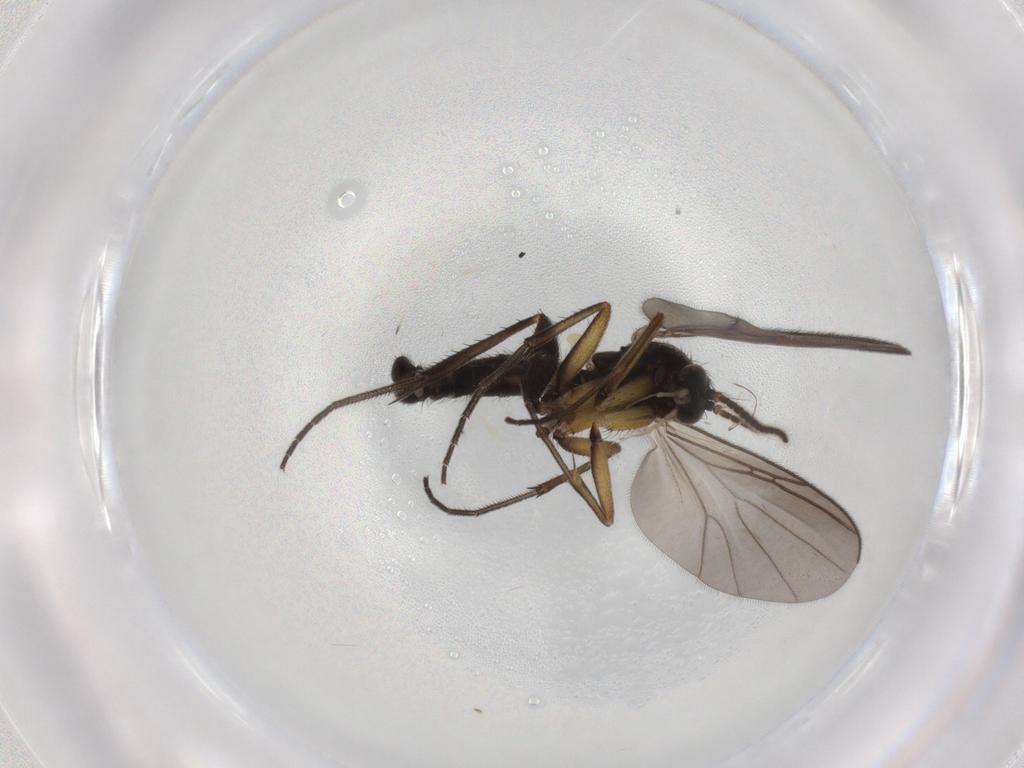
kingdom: Animalia
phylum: Arthropoda
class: Insecta
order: Diptera
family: Mycetophilidae
